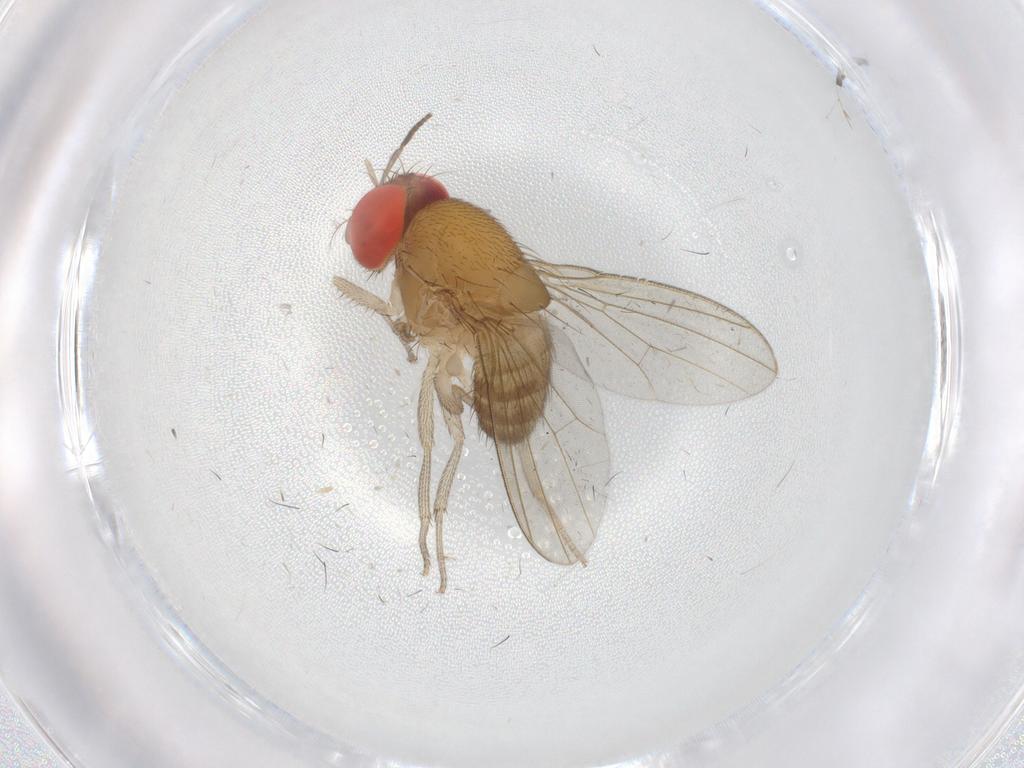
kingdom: Animalia
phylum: Arthropoda
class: Insecta
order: Diptera
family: Drosophilidae
